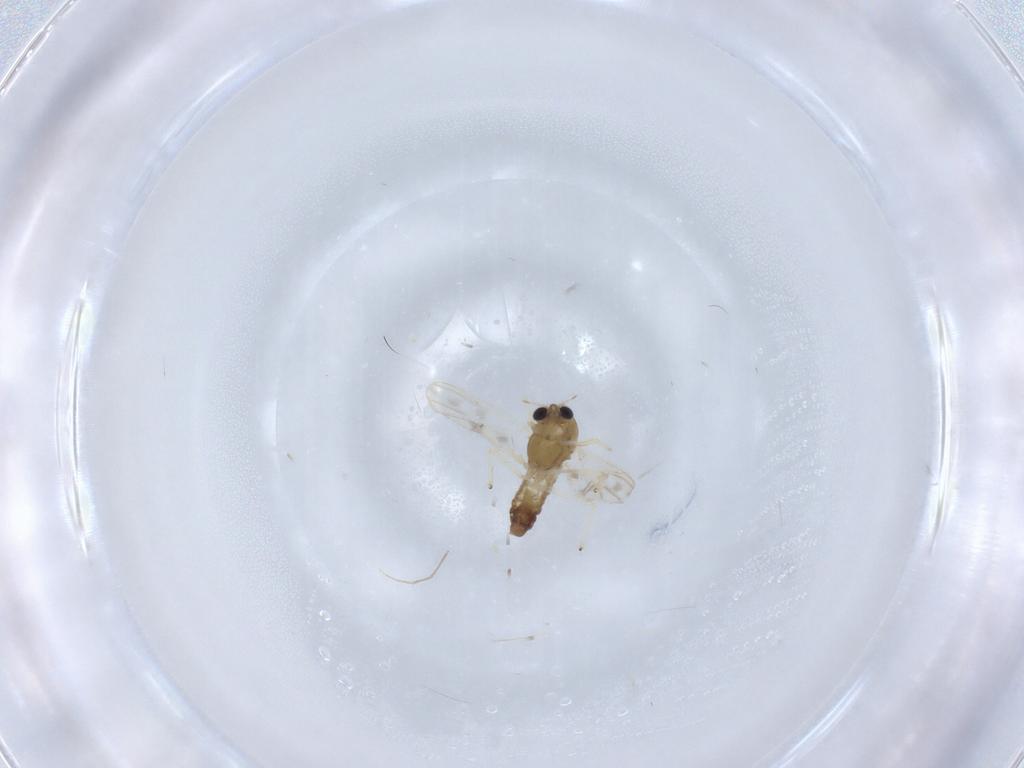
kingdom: Animalia
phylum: Arthropoda
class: Insecta
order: Diptera
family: Chironomidae
